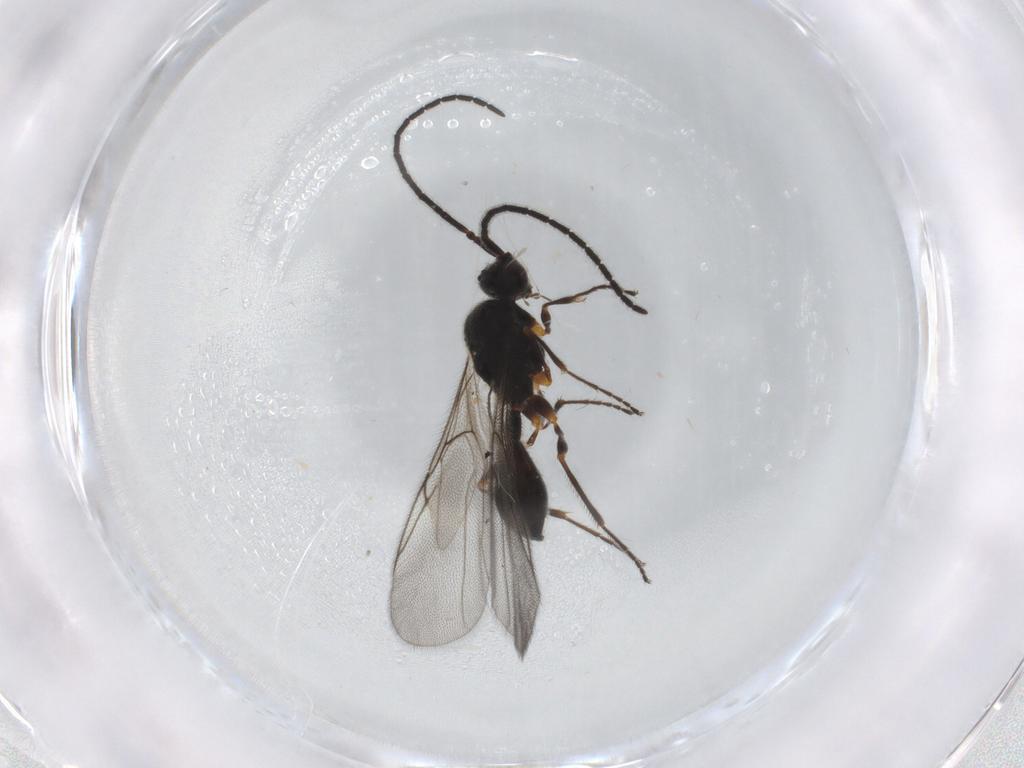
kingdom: Animalia
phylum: Arthropoda
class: Insecta
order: Hymenoptera
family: Diapriidae
